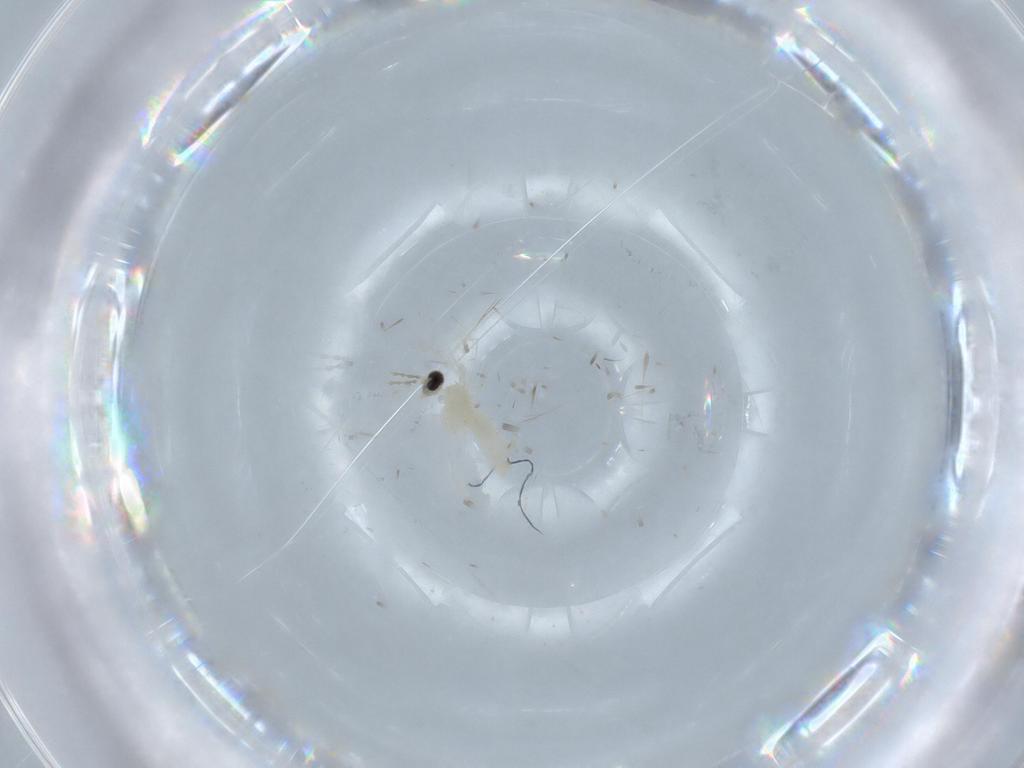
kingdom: Animalia
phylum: Arthropoda
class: Insecta
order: Diptera
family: Cecidomyiidae
